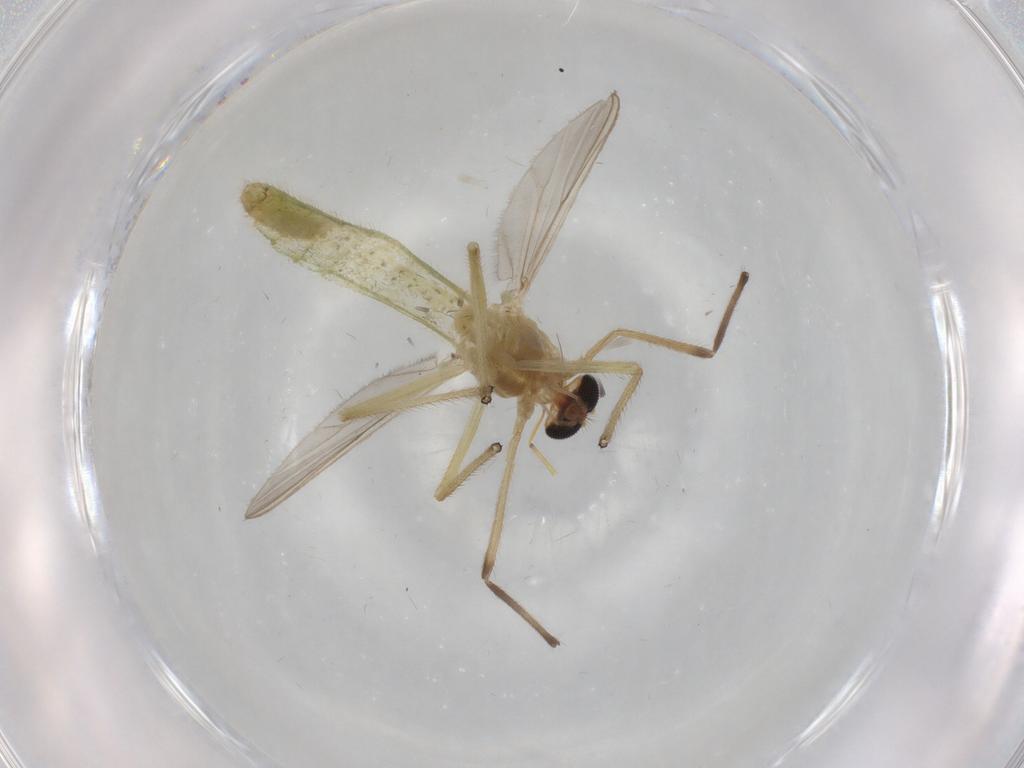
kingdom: Animalia
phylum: Arthropoda
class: Insecta
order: Diptera
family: Ceratopogonidae
